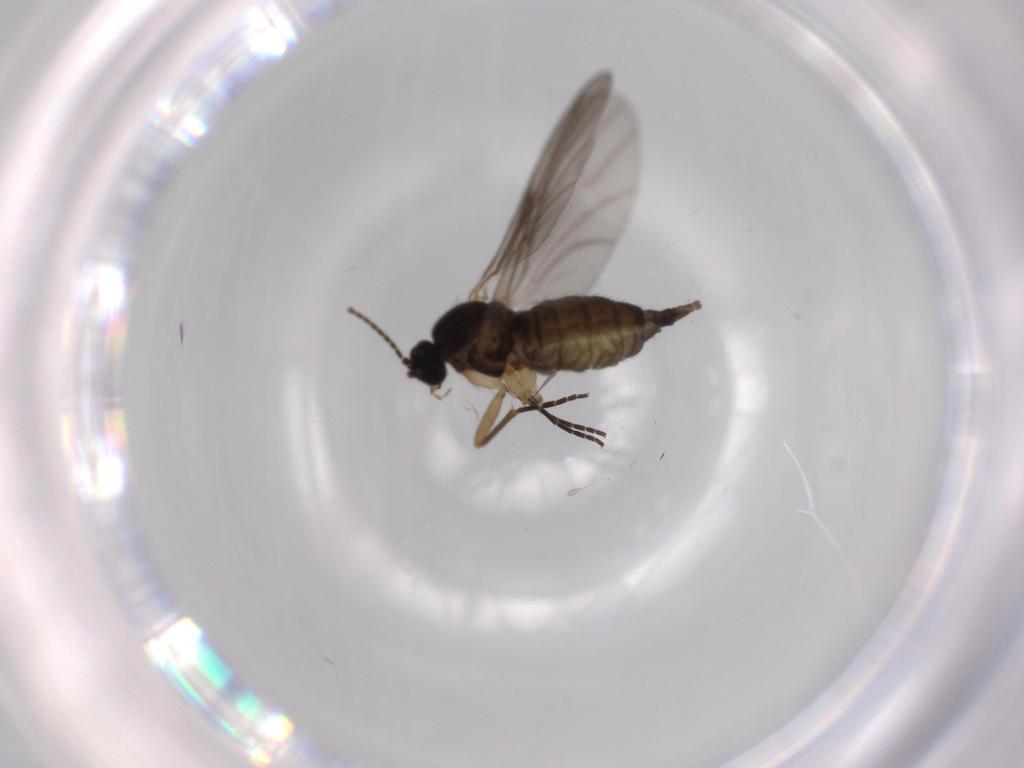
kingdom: Animalia
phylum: Arthropoda
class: Insecta
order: Diptera
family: Sciaridae
